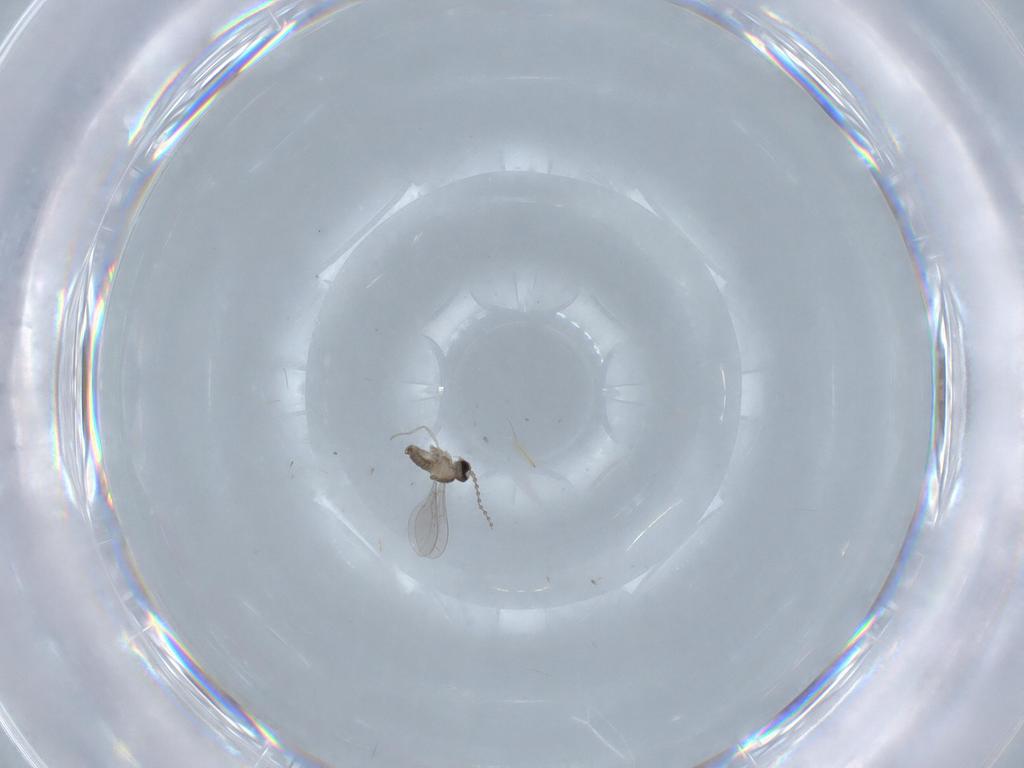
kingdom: Animalia
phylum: Arthropoda
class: Insecta
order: Diptera
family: Cecidomyiidae
